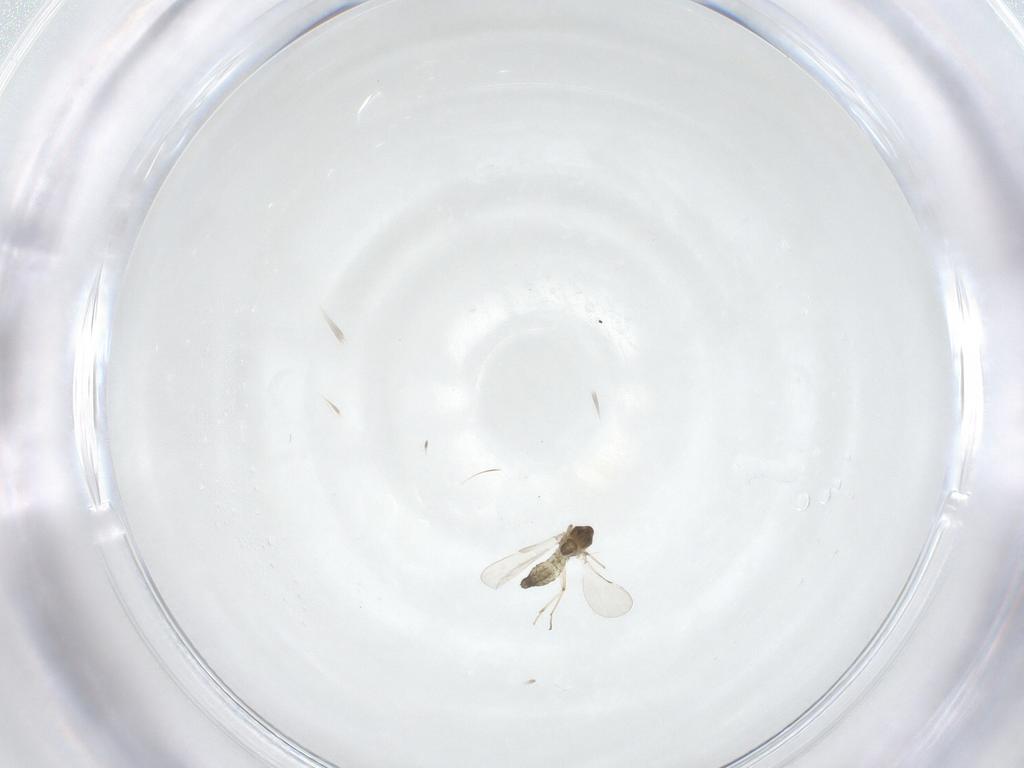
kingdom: Animalia
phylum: Arthropoda
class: Insecta
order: Diptera
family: Chironomidae
